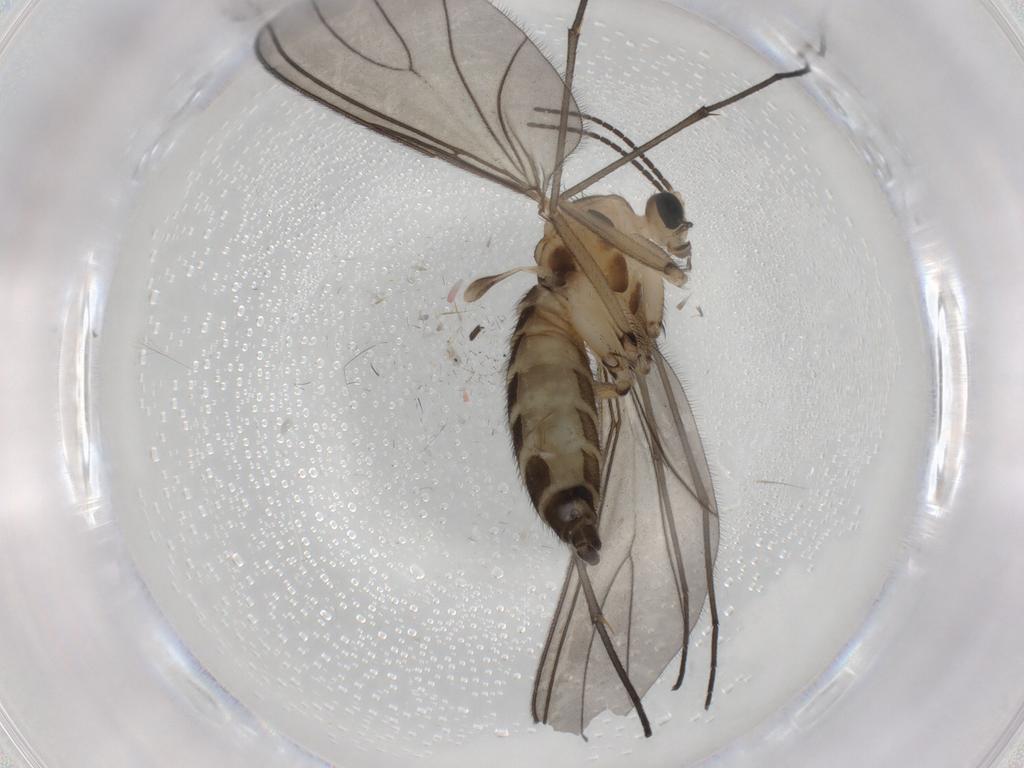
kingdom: Animalia
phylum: Arthropoda
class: Insecta
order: Diptera
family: Sciaridae
